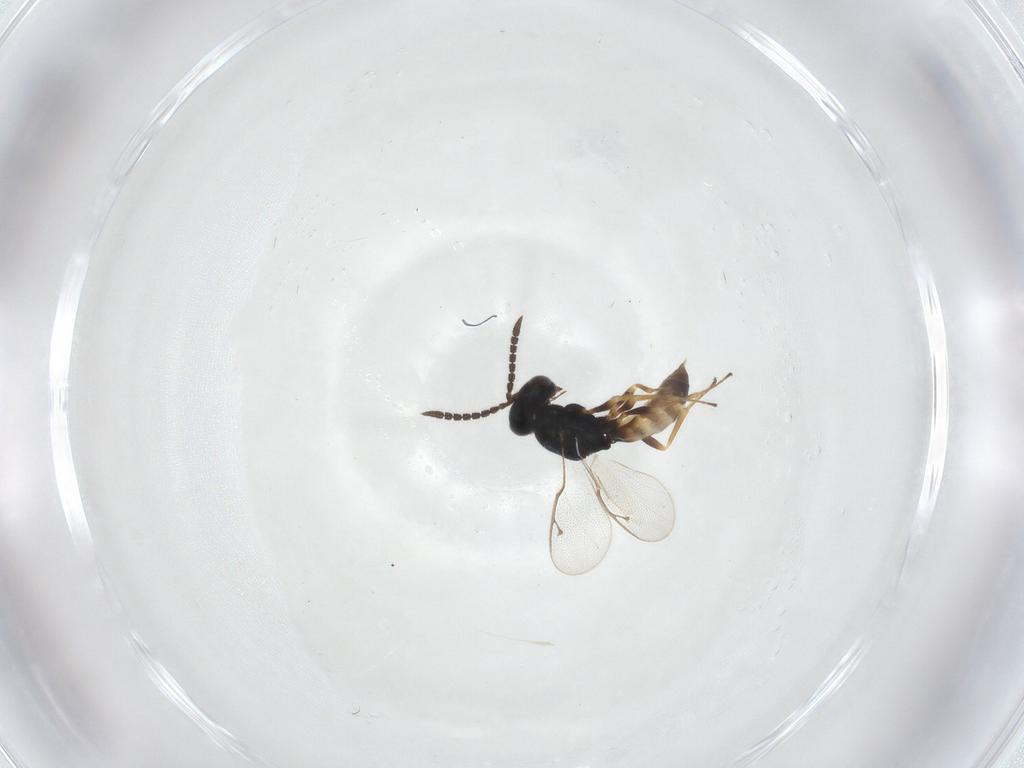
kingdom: Animalia
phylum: Arthropoda
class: Insecta
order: Hymenoptera
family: Pteromalidae
